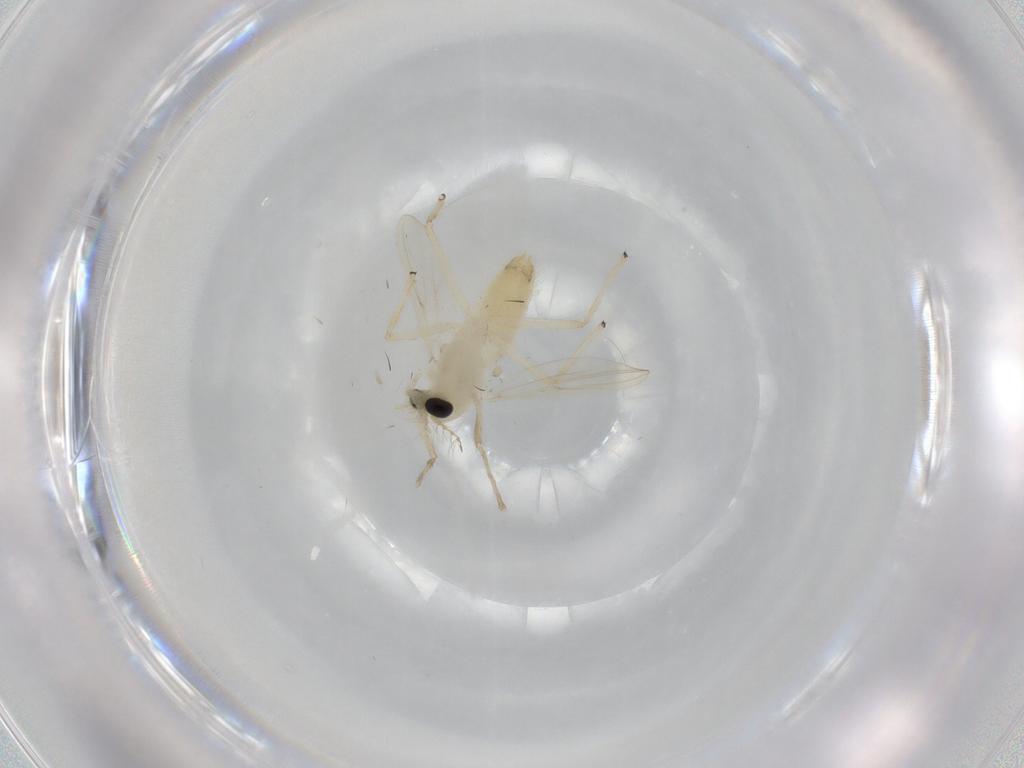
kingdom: Animalia
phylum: Arthropoda
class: Insecta
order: Diptera
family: Chironomidae
